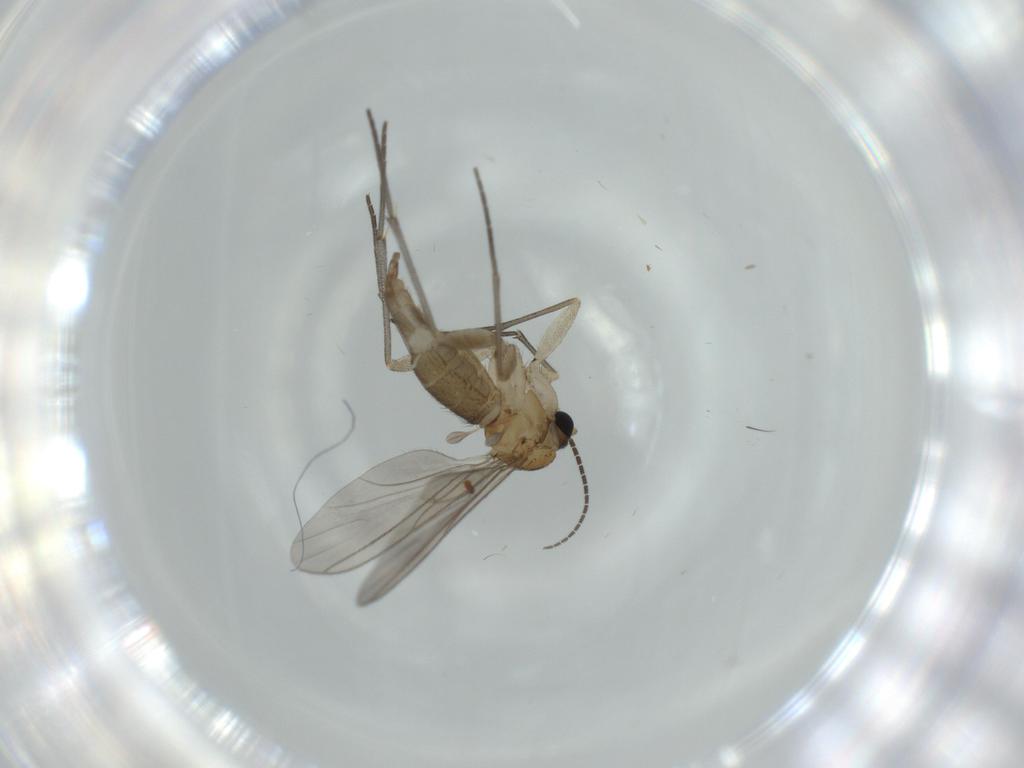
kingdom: Animalia
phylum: Arthropoda
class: Insecta
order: Diptera
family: Sciaridae
